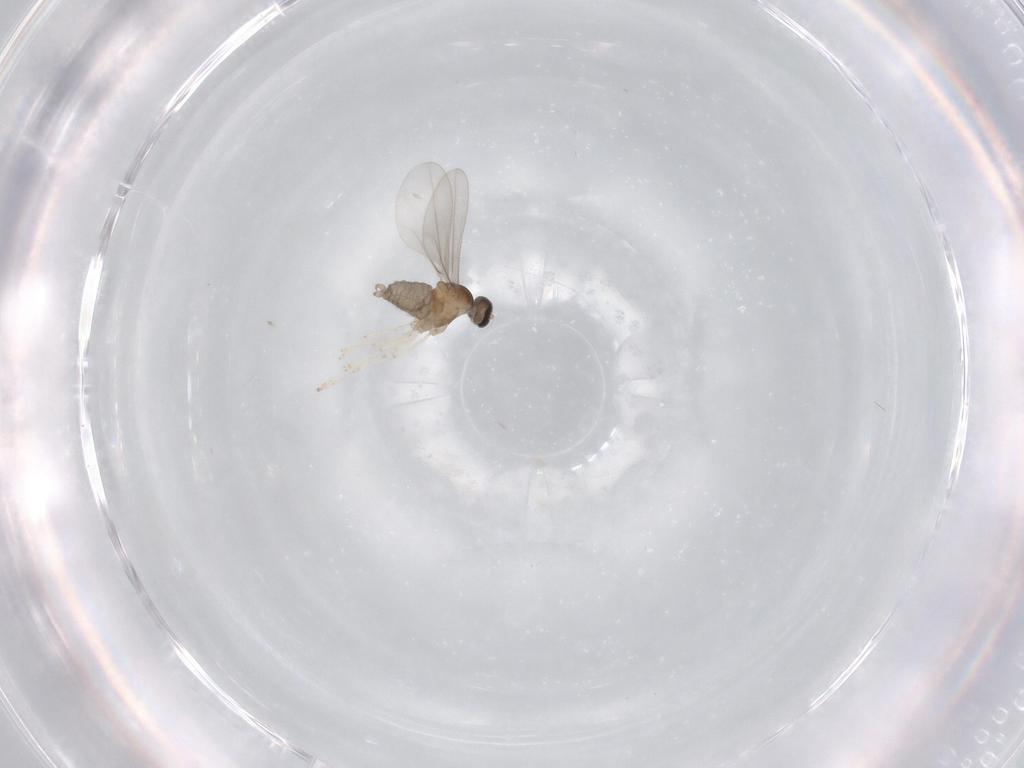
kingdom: Animalia
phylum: Arthropoda
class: Insecta
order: Diptera
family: Cecidomyiidae
